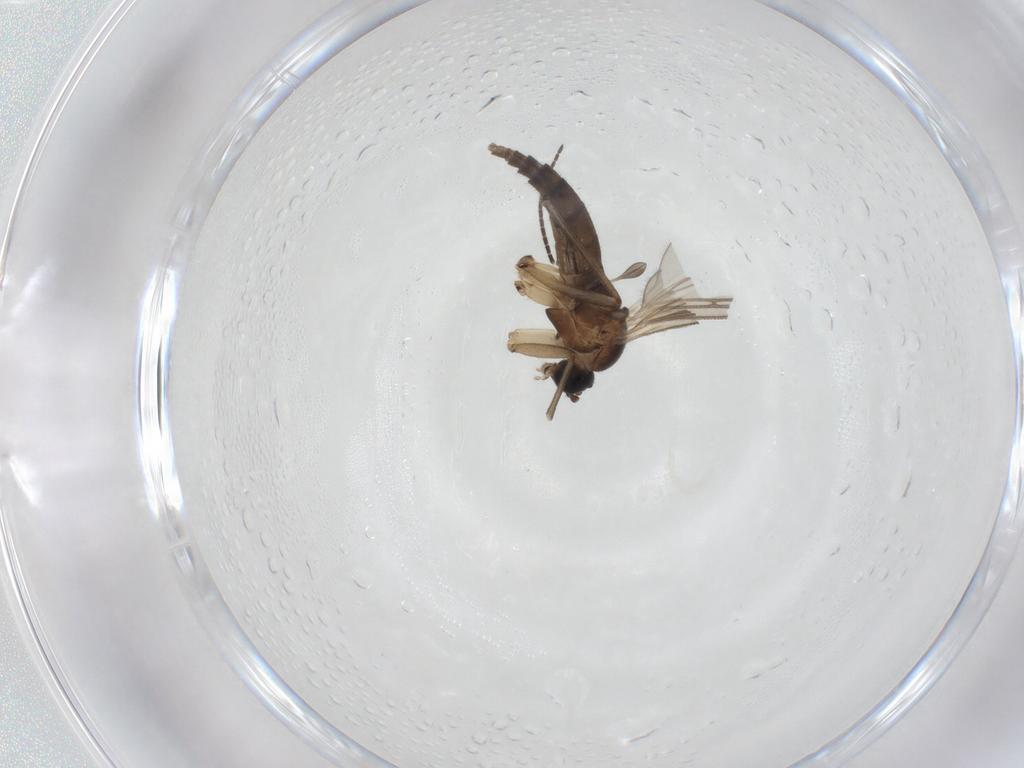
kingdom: Animalia
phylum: Arthropoda
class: Insecta
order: Diptera
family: Sciaridae
